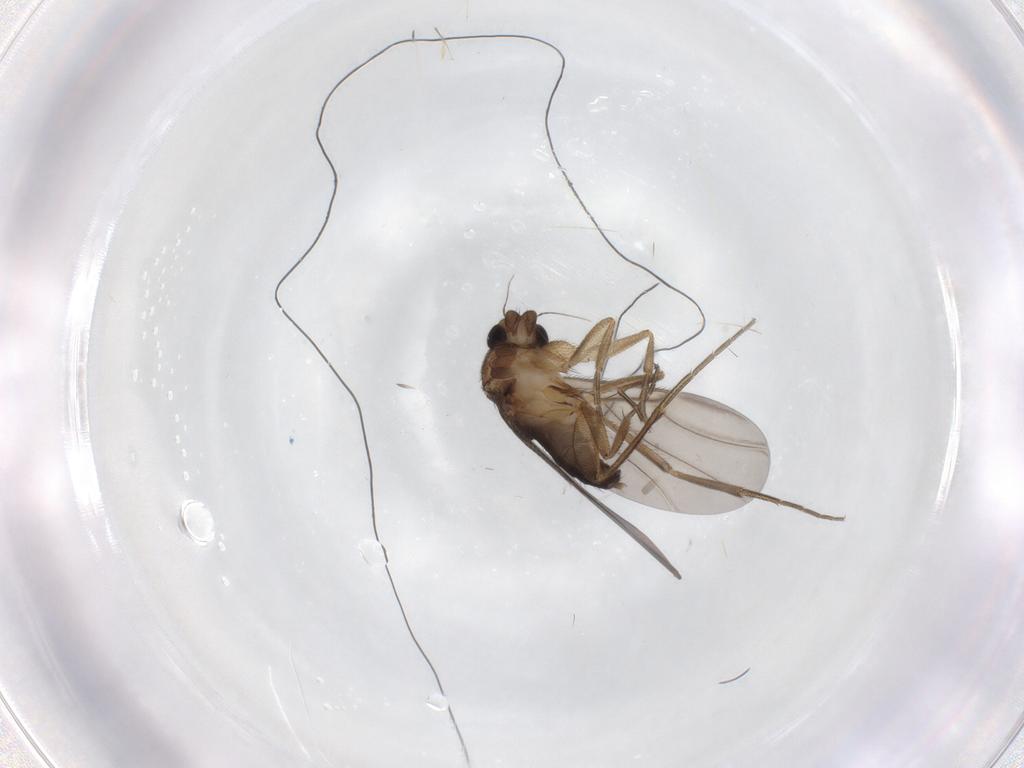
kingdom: Animalia
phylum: Arthropoda
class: Insecta
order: Diptera
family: Phoridae
